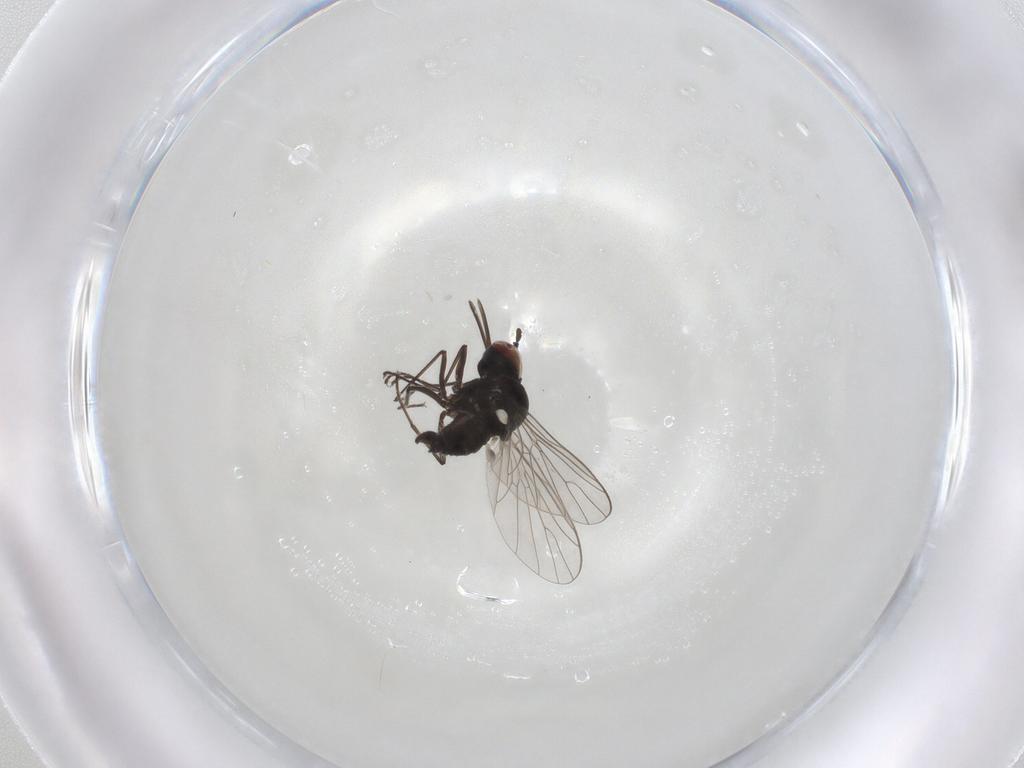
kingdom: Animalia
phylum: Arthropoda
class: Insecta
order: Diptera
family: Bombyliidae
